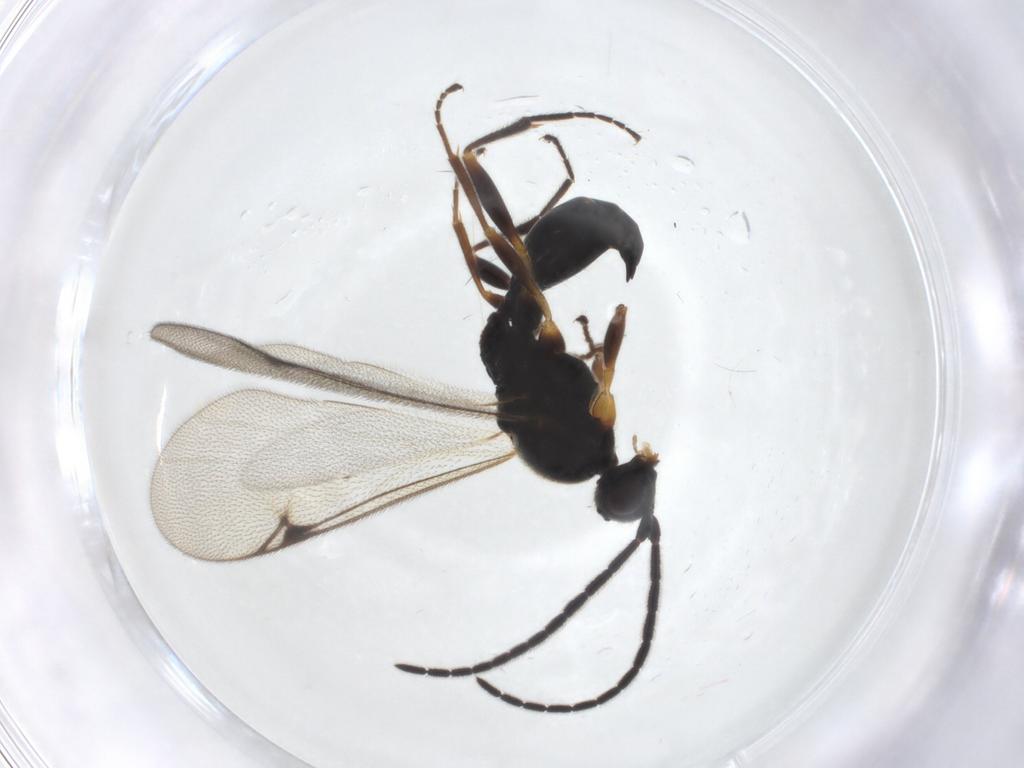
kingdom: Animalia
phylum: Arthropoda
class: Insecta
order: Hymenoptera
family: Proctotrupidae
